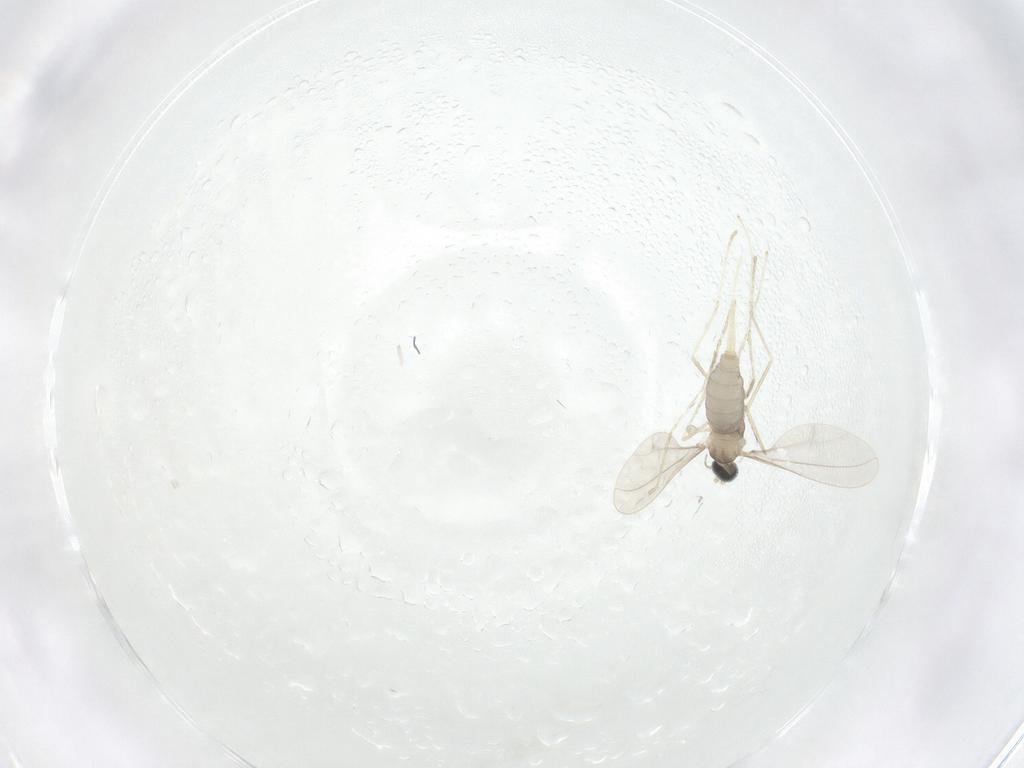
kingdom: Animalia
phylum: Arthropoda
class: Insecta
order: Diptera
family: Cecidomyiidae
